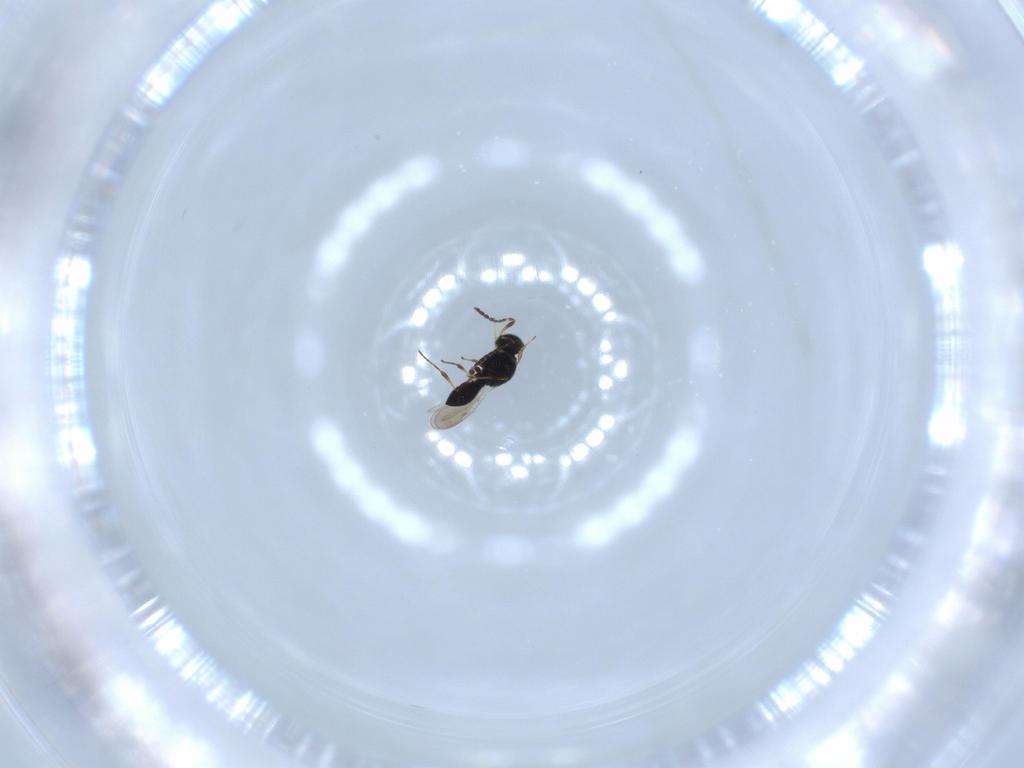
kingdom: Animalia
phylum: Arthropoda
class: Insecta
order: Hymenoptera
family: Platygastridae
